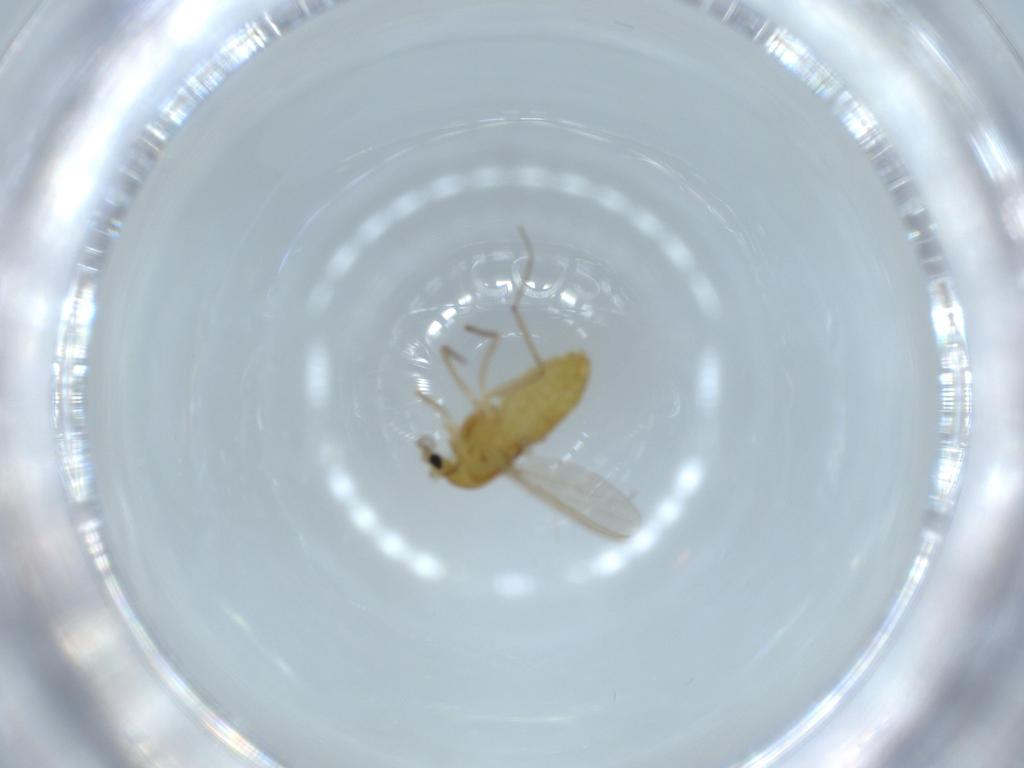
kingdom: Animalia
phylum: Arthropoda
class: Insecta
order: Diptera
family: Chironomidae
